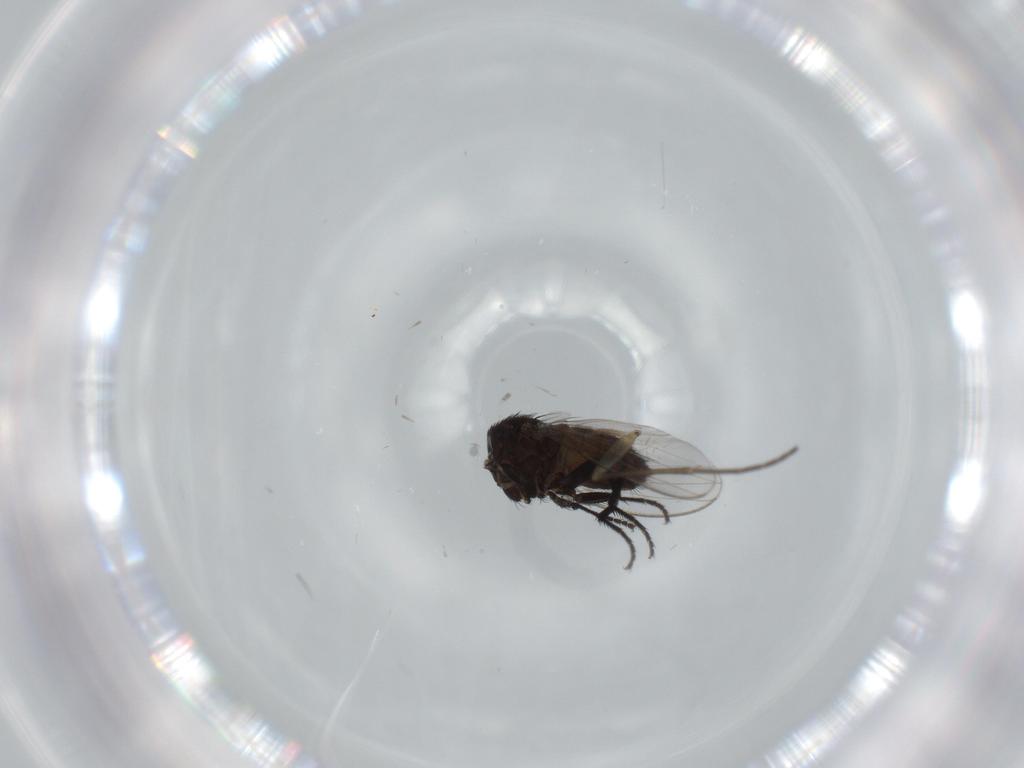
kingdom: Animalia
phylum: Arthropoda
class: Insecta
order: Diptera
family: Milichiidae
